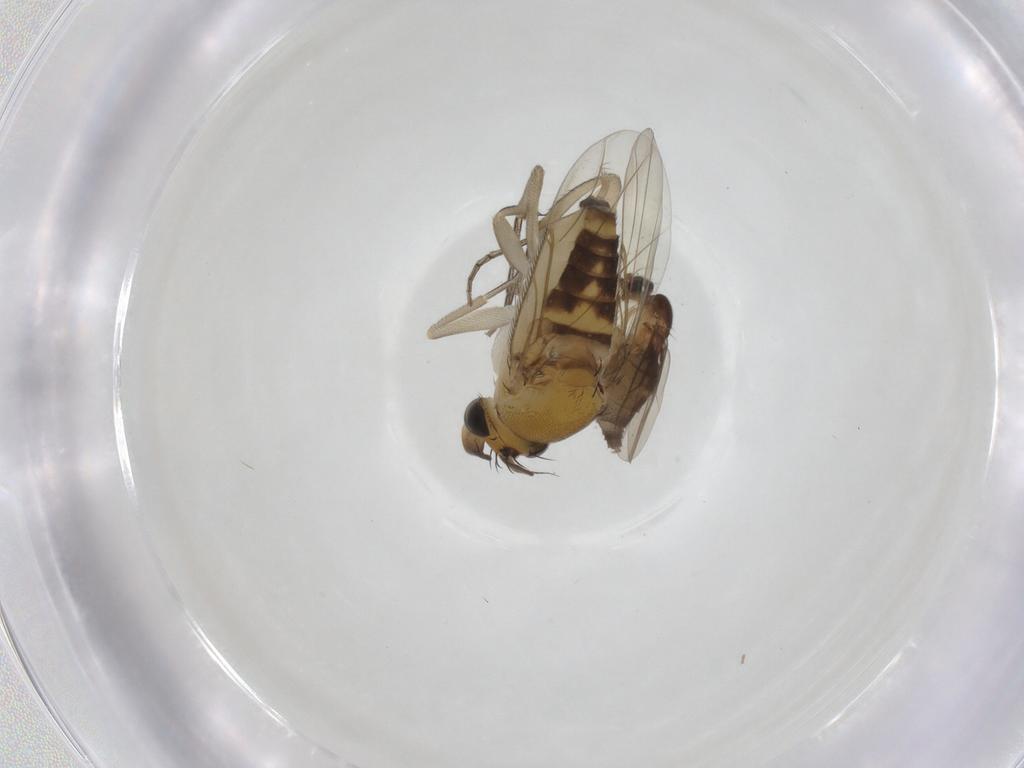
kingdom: Animalia
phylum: Arthropoda
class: Insecta
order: Diptera
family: Phoridae
